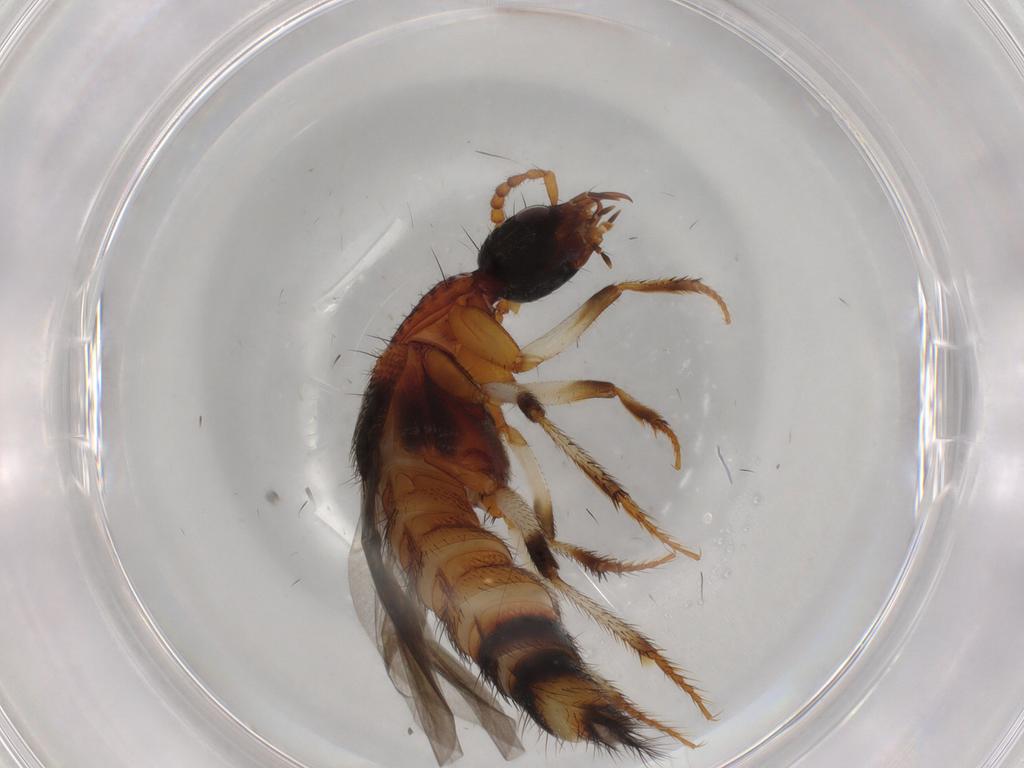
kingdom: Animalia
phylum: Arthropoda
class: Insecta
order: Coleoptera
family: Staphylinidae
